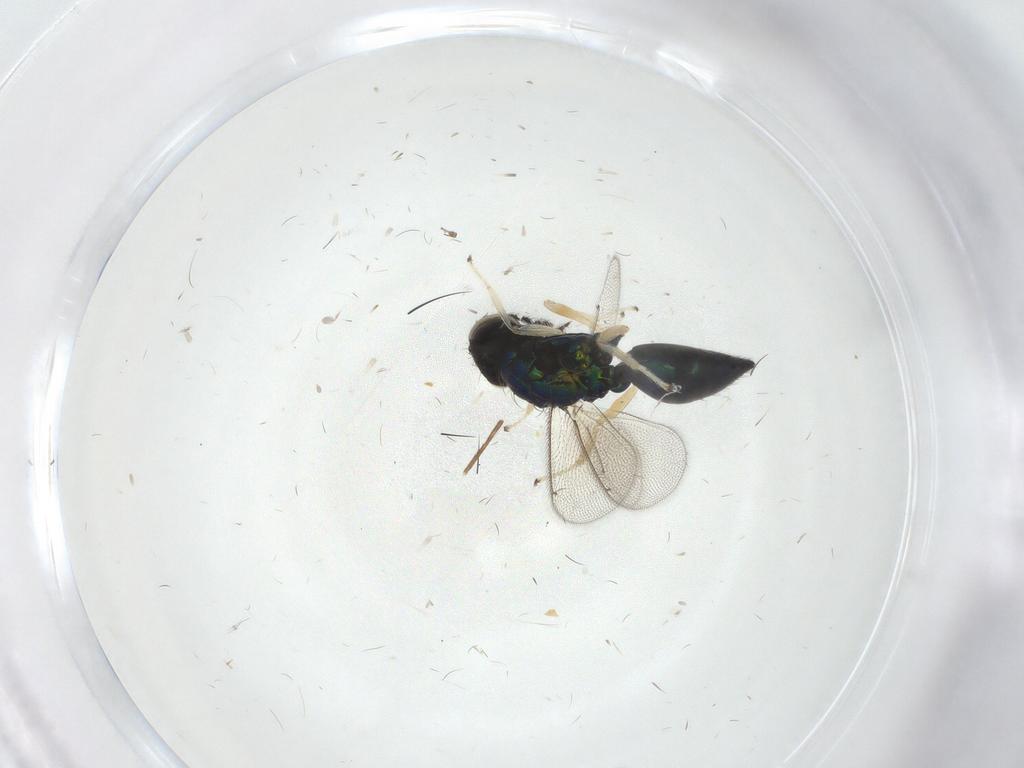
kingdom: Animalia
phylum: Arthropoda
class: Insecta
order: Hymenoptera
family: Eulophidae
